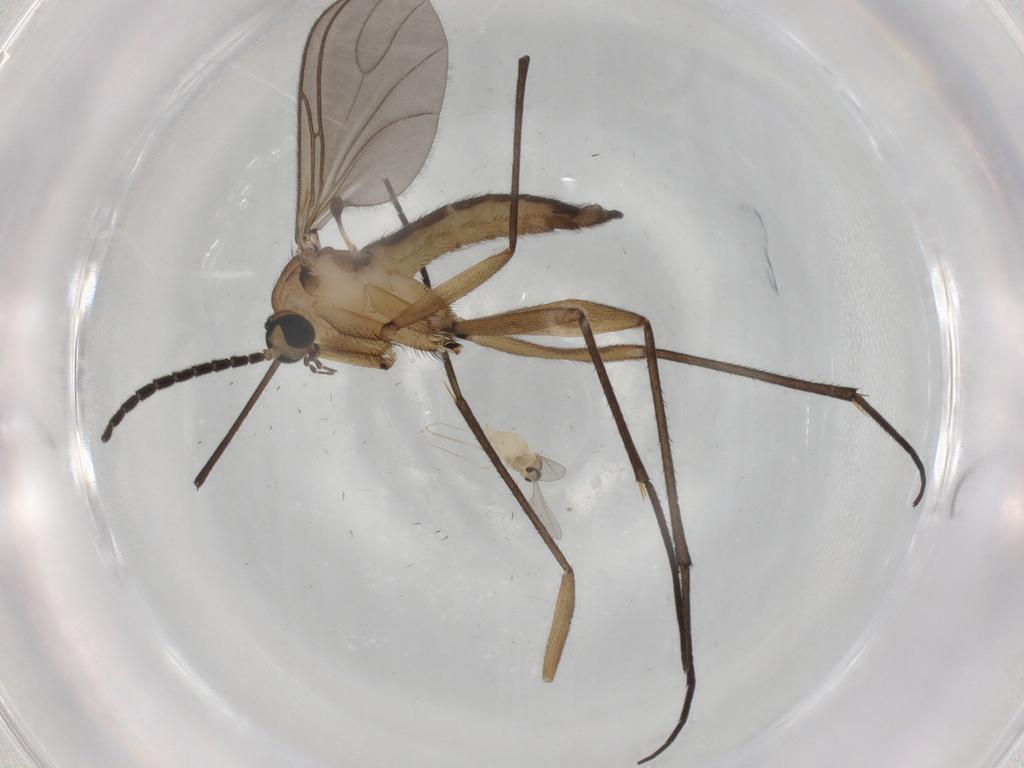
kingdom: Animalia
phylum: Arthropoda
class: Insecta
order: Diptera
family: Cecidomyiidae
